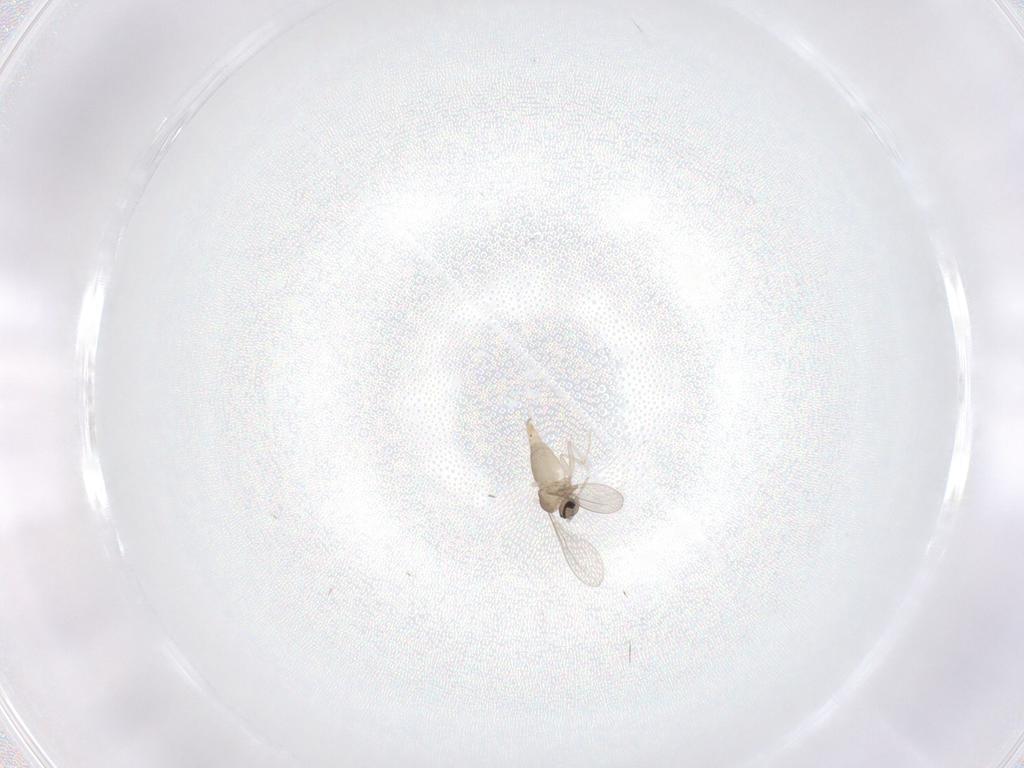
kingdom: Animalia
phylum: Arthropoda
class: Insecta
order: Diptera
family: Cecidomyiidae
